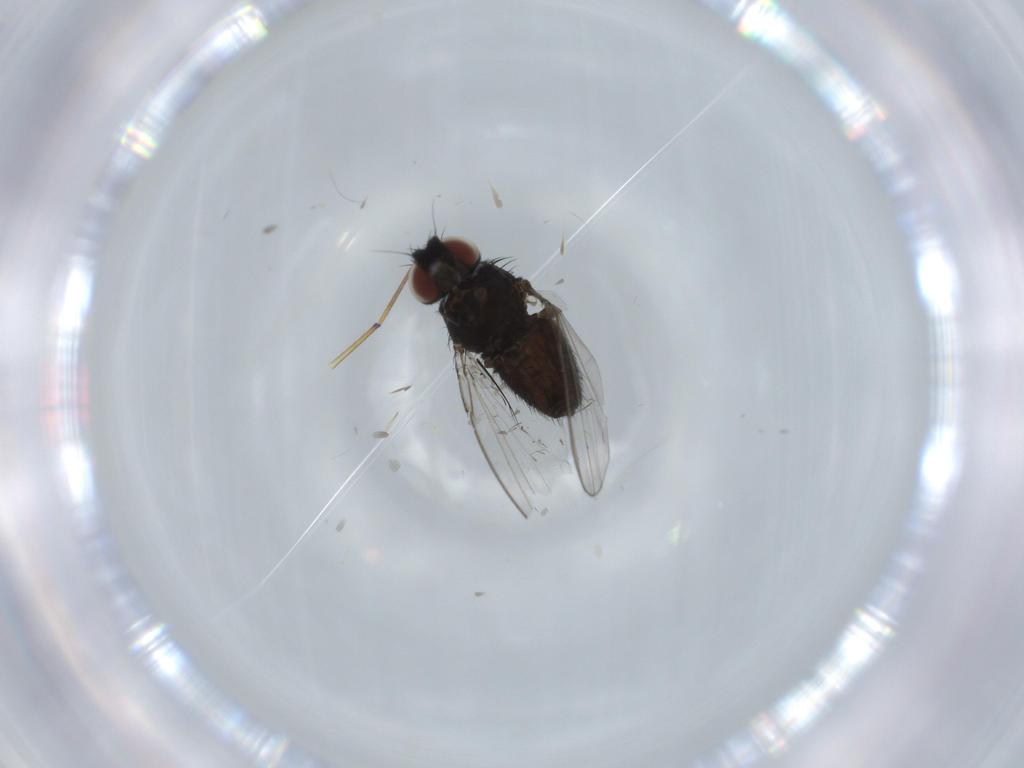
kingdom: Animalia
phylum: Arthropoda
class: Insecta
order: Diptera
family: Milichiidae
